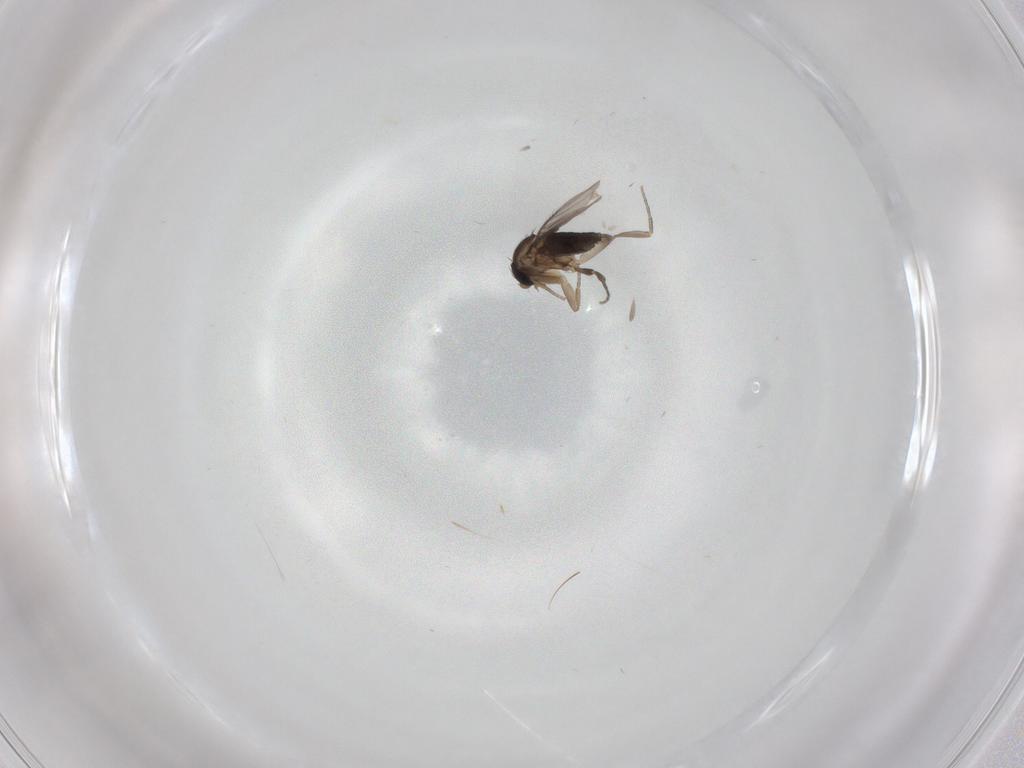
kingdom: Animalia
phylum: Arthropoda
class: Insecta
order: Diptera
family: Phoridae
